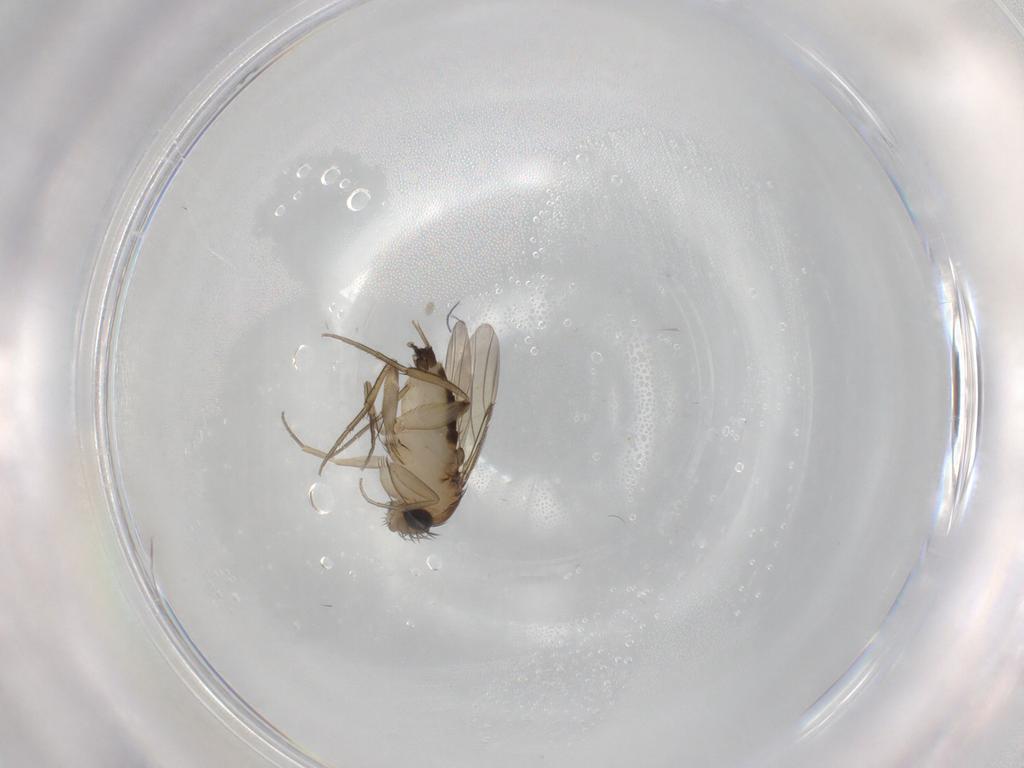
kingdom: Animalia
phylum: Arthropoda
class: Insecta
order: Diptera
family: Phoridae
